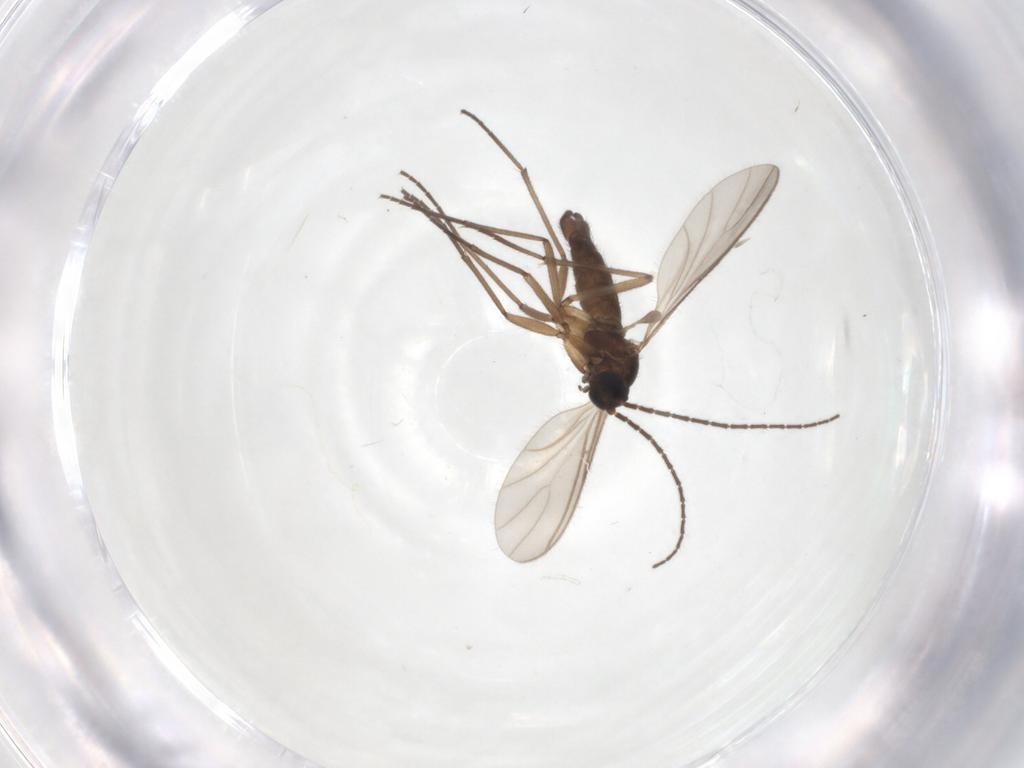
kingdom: Animalia
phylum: Arthropoda
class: Insecta
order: Diptera
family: Sciaridae
